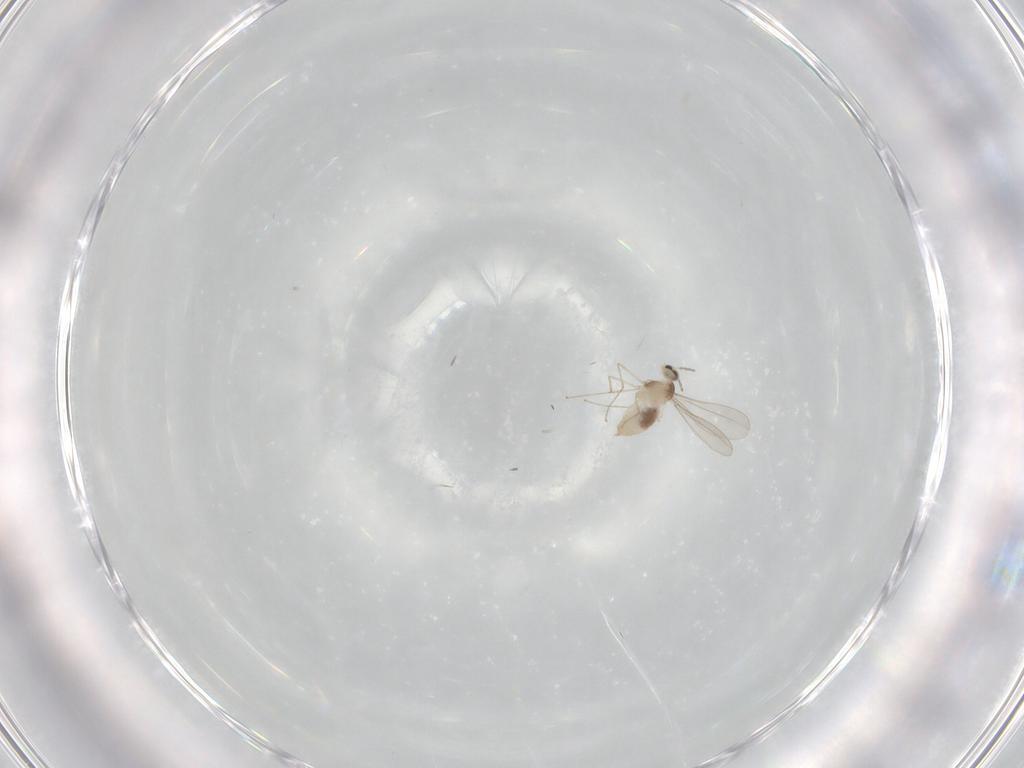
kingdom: Animalia
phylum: Arthropoda
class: Insecta
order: Diptera
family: Cecidomyiidae
